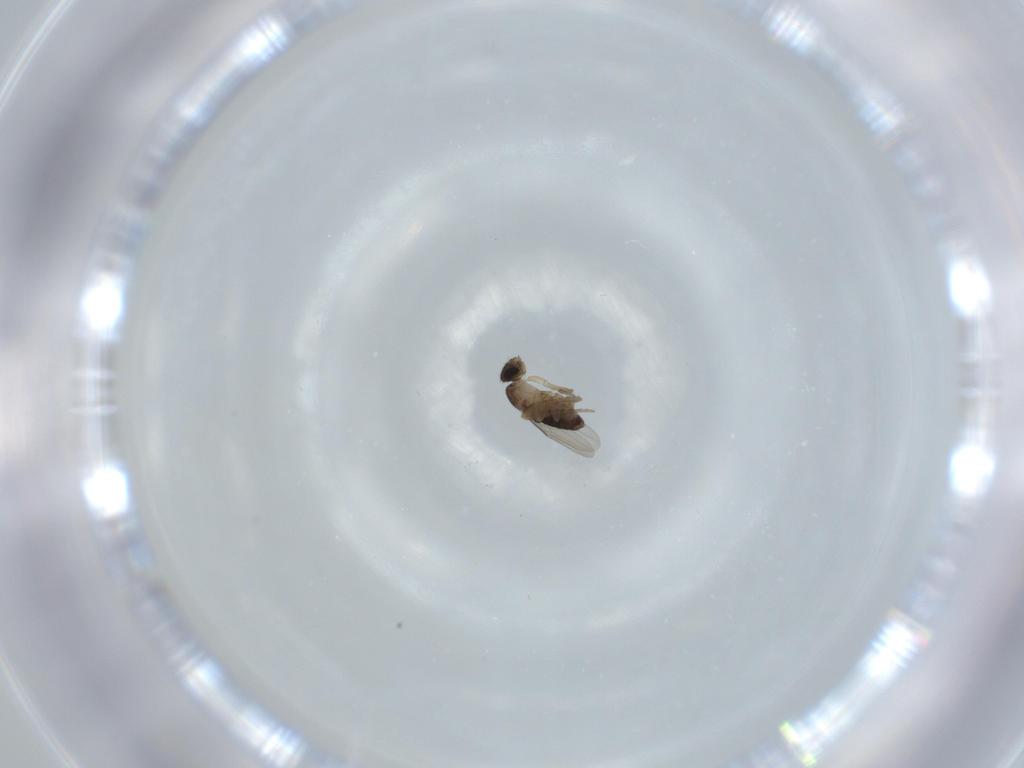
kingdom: Animalia
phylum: Arthropoda
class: Insecta
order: Diptera
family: Phoridae
